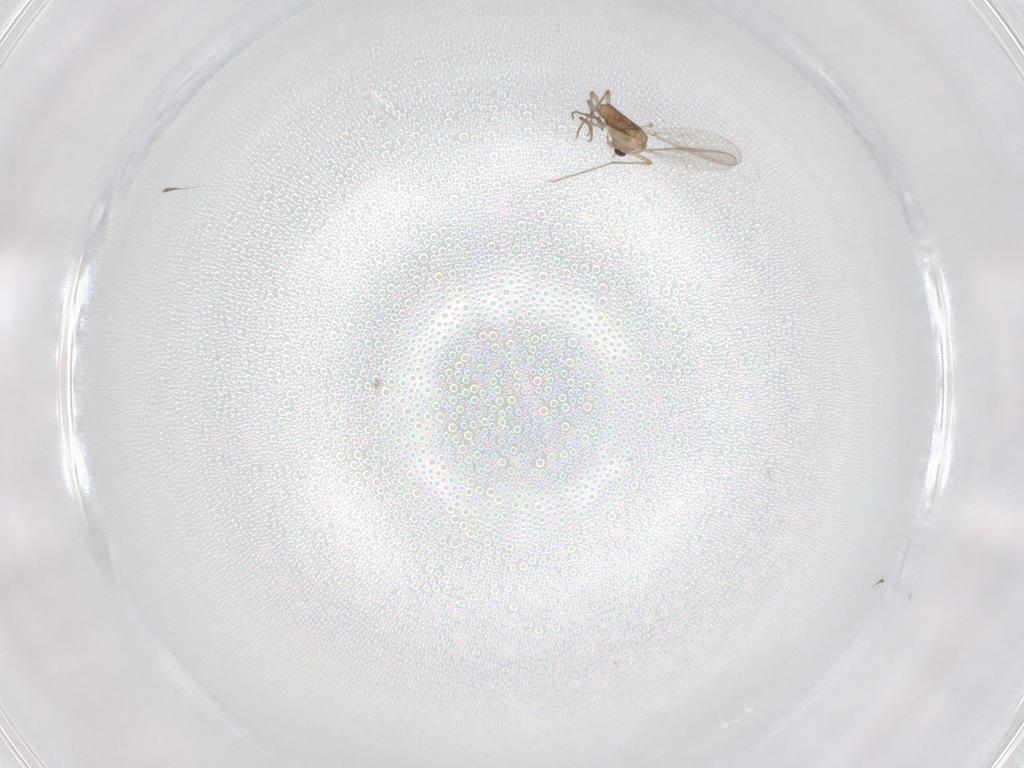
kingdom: Animalia
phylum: Arthropoda
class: Insecta
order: Diptera
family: Chironomidae
